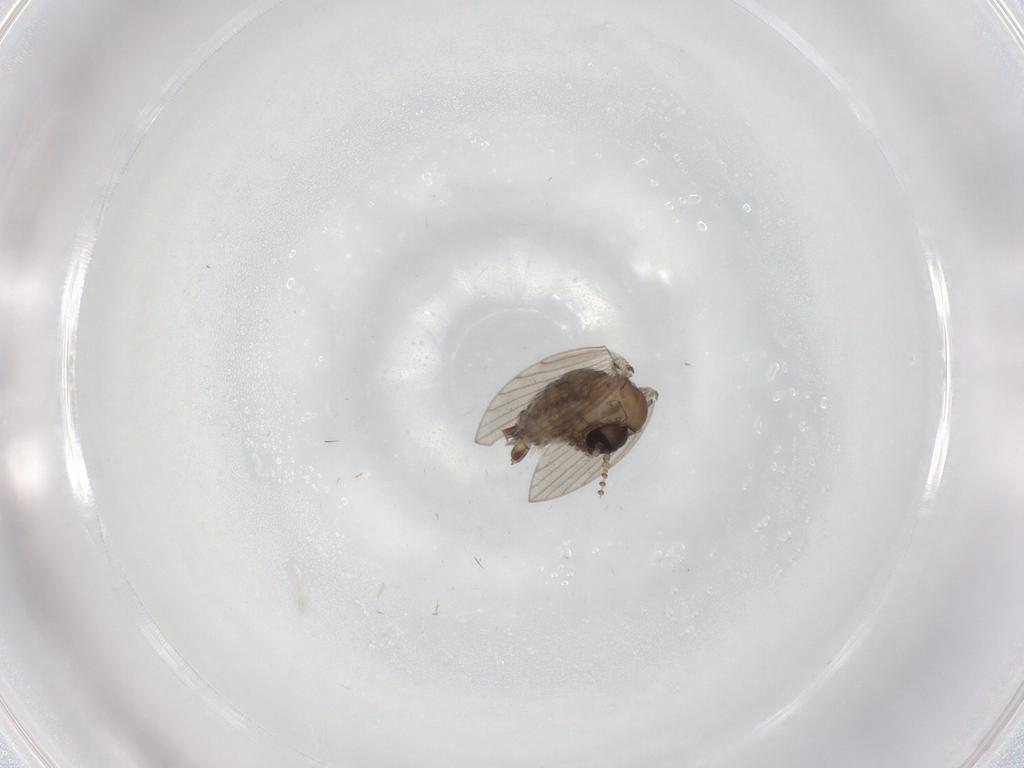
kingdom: Animalia
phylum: Arthropoda
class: Insecta
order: Diptera
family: Psychodidae
